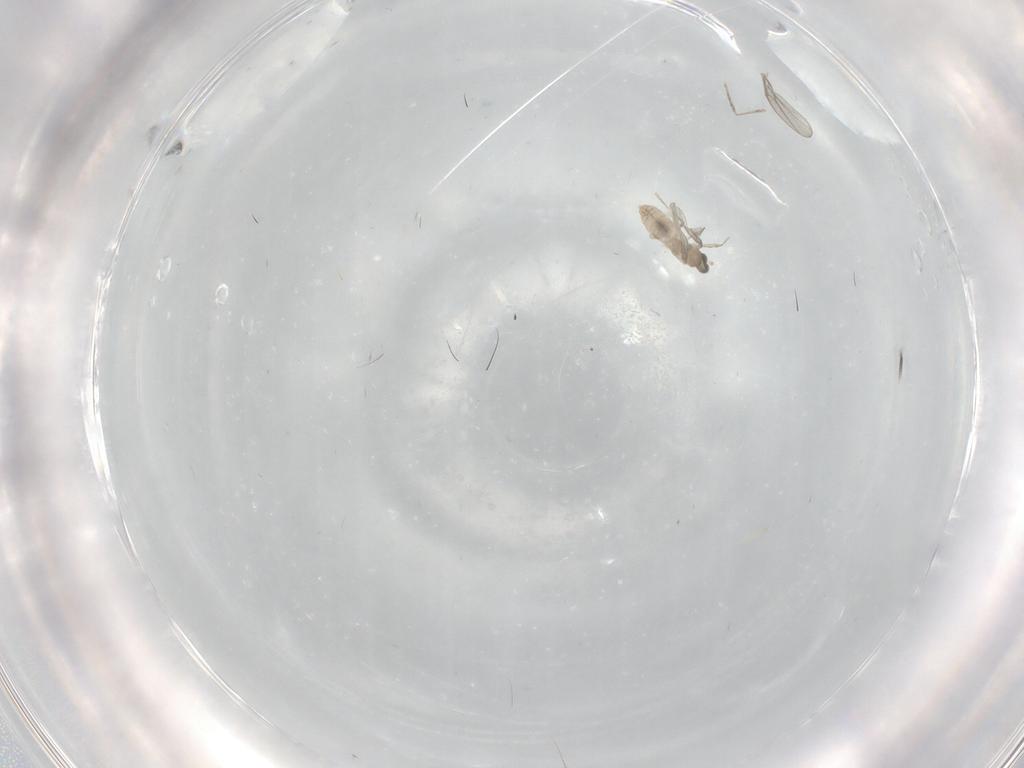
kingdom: Animalia
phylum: Arthropoda
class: Insecta
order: Diptera
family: Cecidomyiidae
